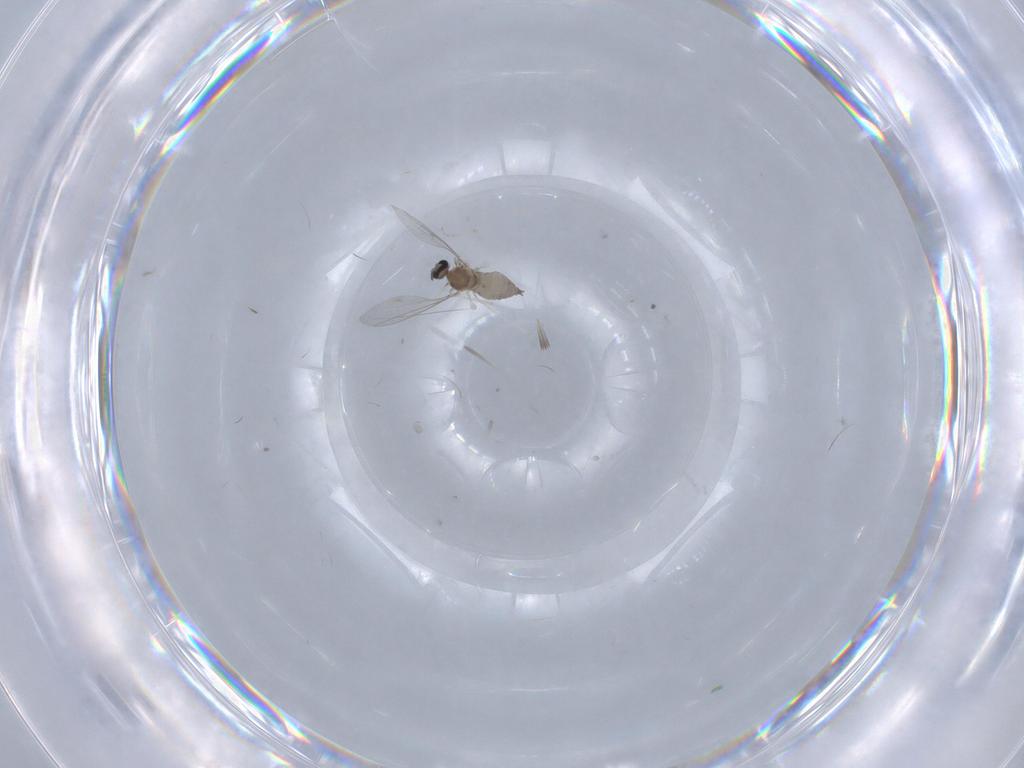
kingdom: Animalia
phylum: Arthropoda
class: Insecta
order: Diptera
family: Cecidomyiidae
